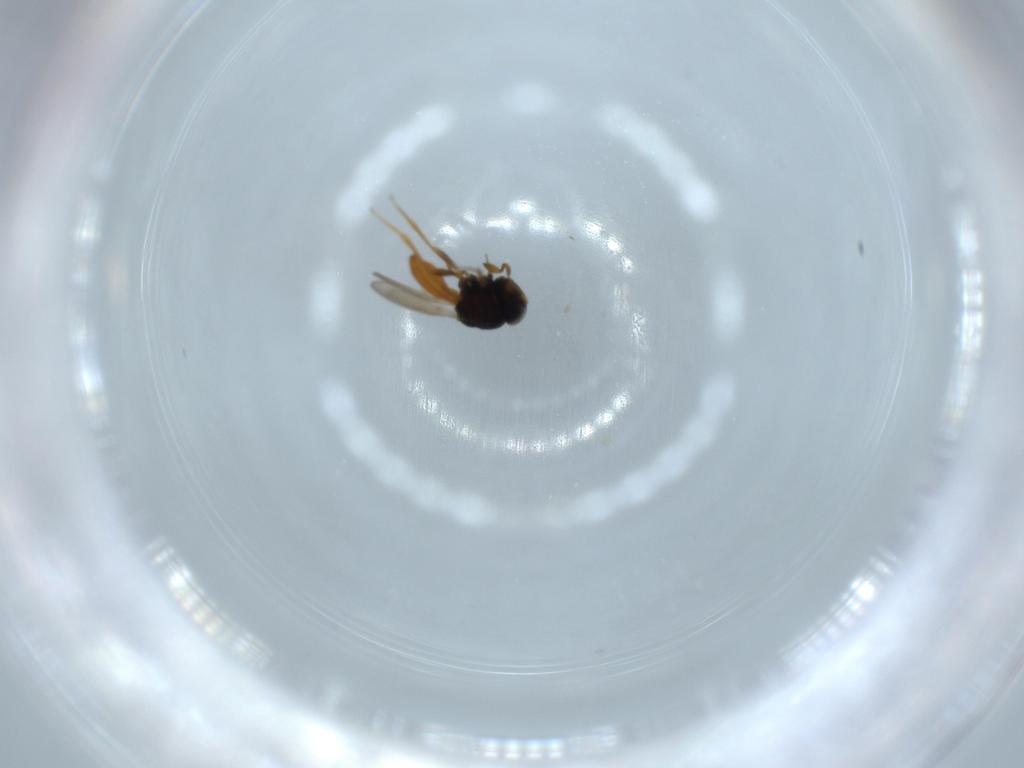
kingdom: Animalia
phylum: Arthropoda
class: Insecta
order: Hymenoptera
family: Scelionidae
